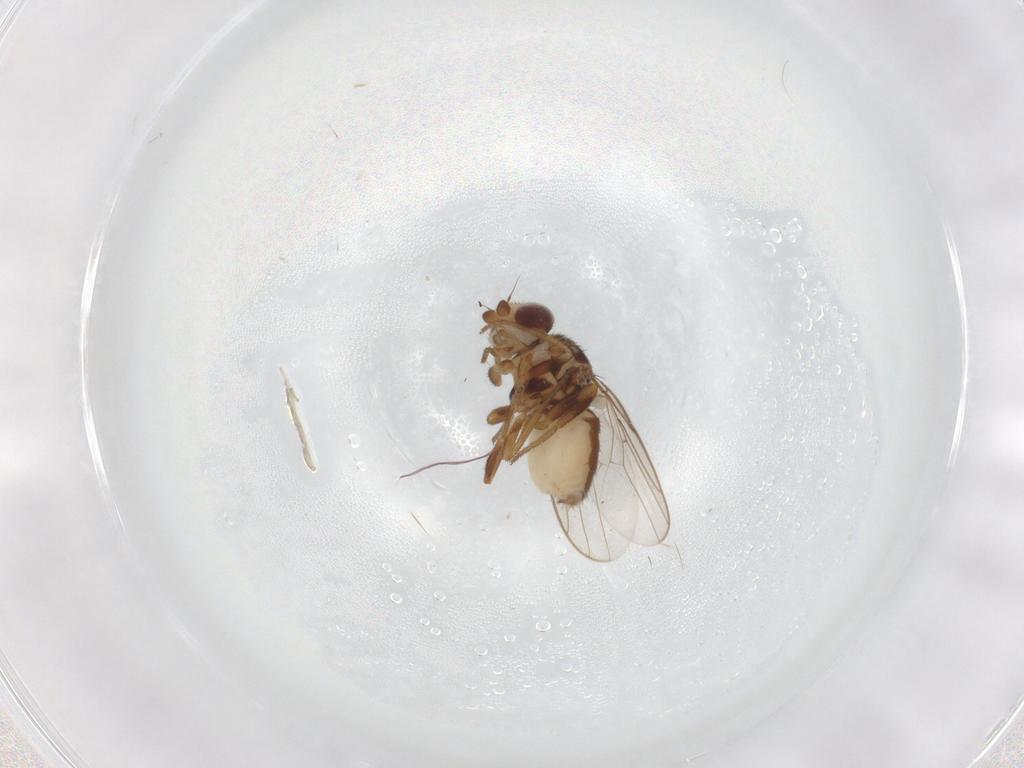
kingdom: Animalia
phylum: Arthropoda
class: Insecta
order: Diptera
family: Chloropidae
